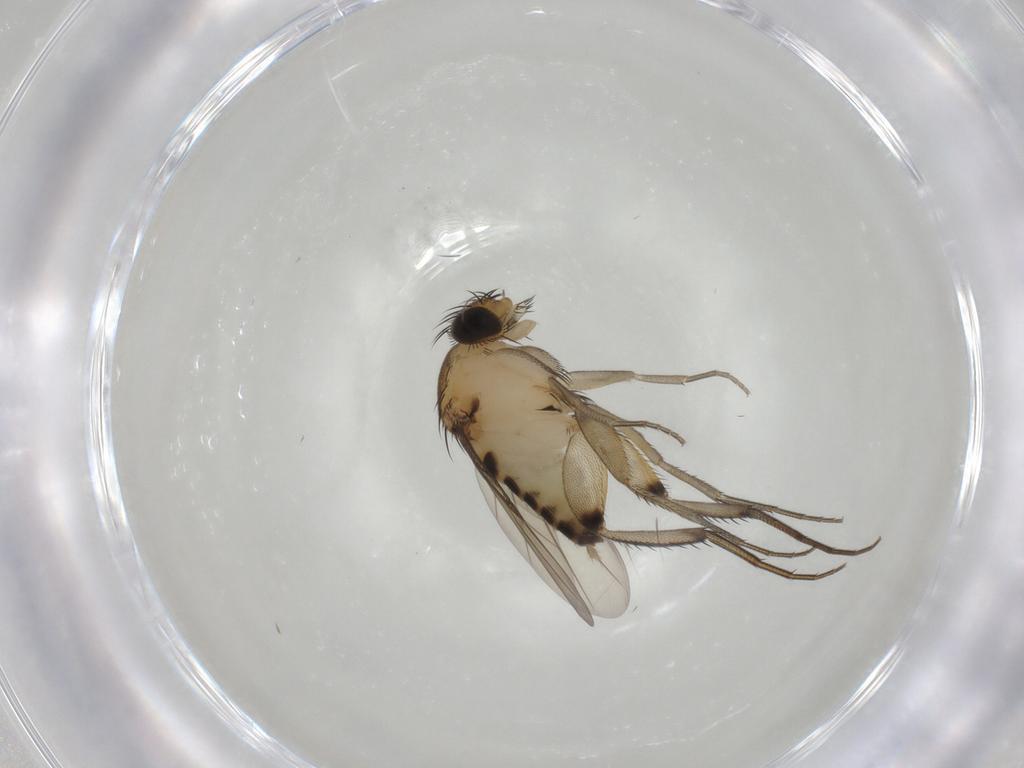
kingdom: Animalia
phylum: Arthropoda
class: Insecta
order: Diptera
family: Phoridae
